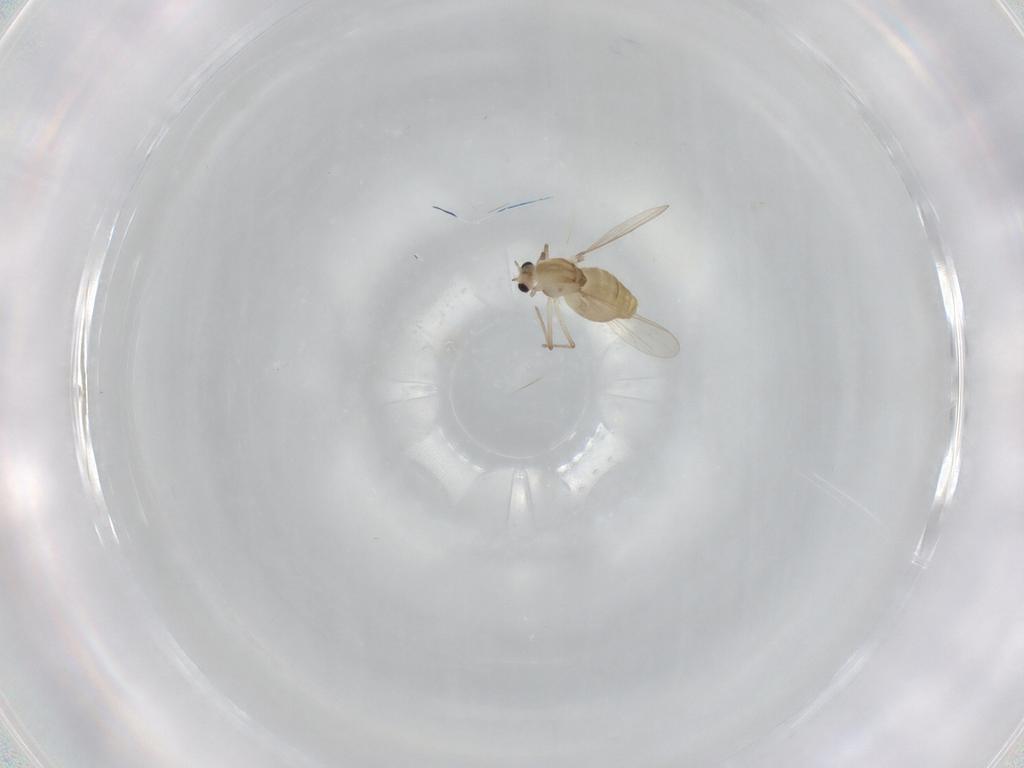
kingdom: Animalia
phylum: Arthropoda
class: Insecta
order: Diptera
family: Chironomidae
